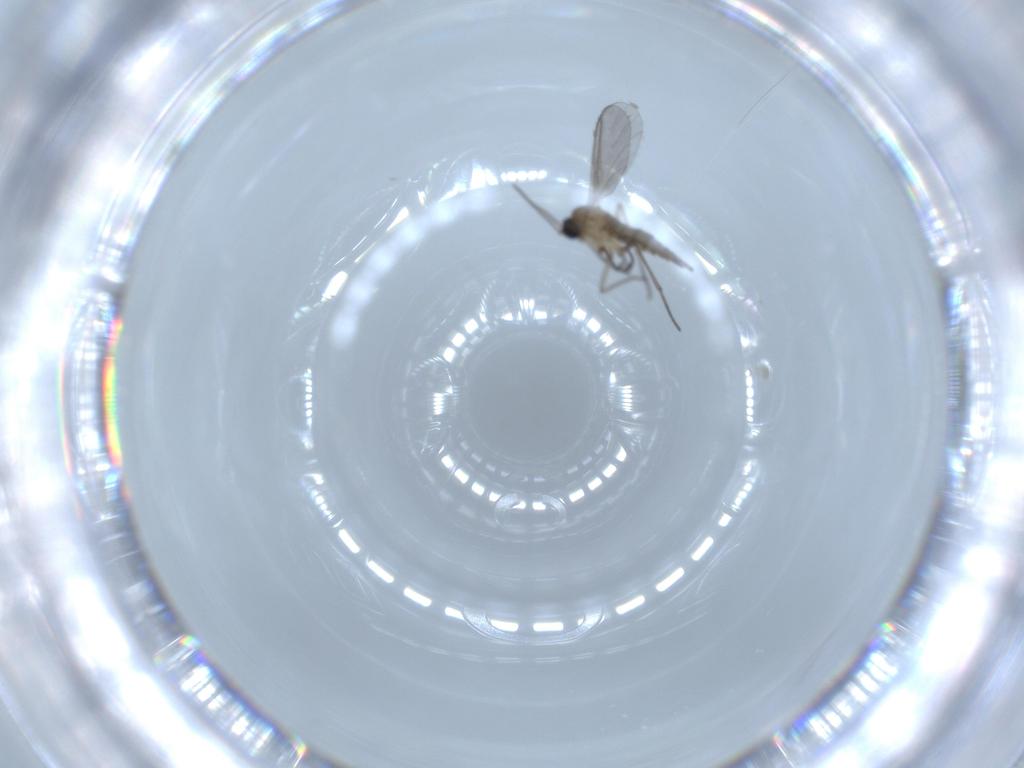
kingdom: Animalia
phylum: Arthropoda
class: Insecta
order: Diptera
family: Sciaridae
